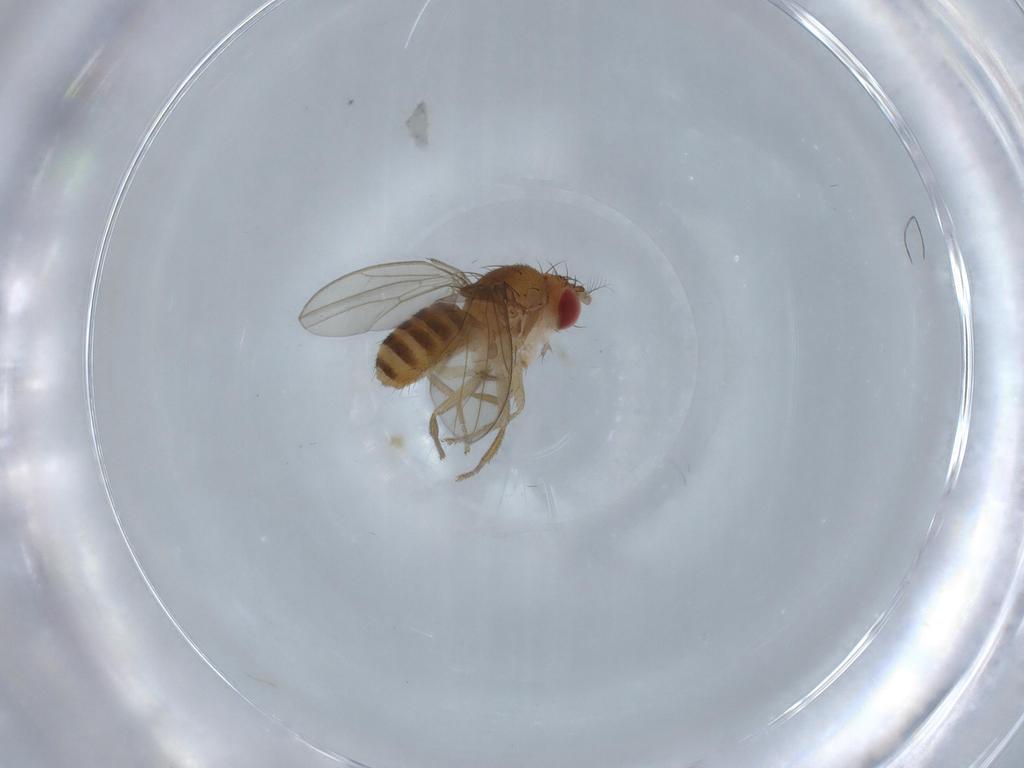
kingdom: Animalia
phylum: Arthropoda
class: Insecta
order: Diptera
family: Drosophilidae
